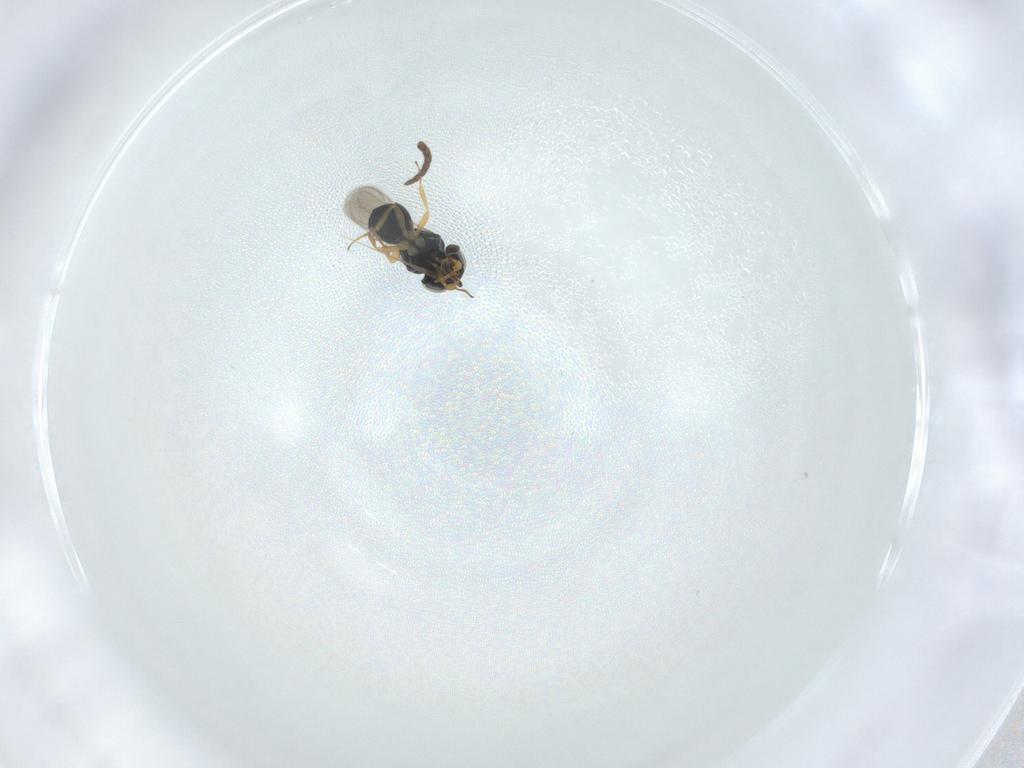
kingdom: Animalia
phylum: Arthropoda
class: Insecta
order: Hymenoptera
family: Scelionidae
